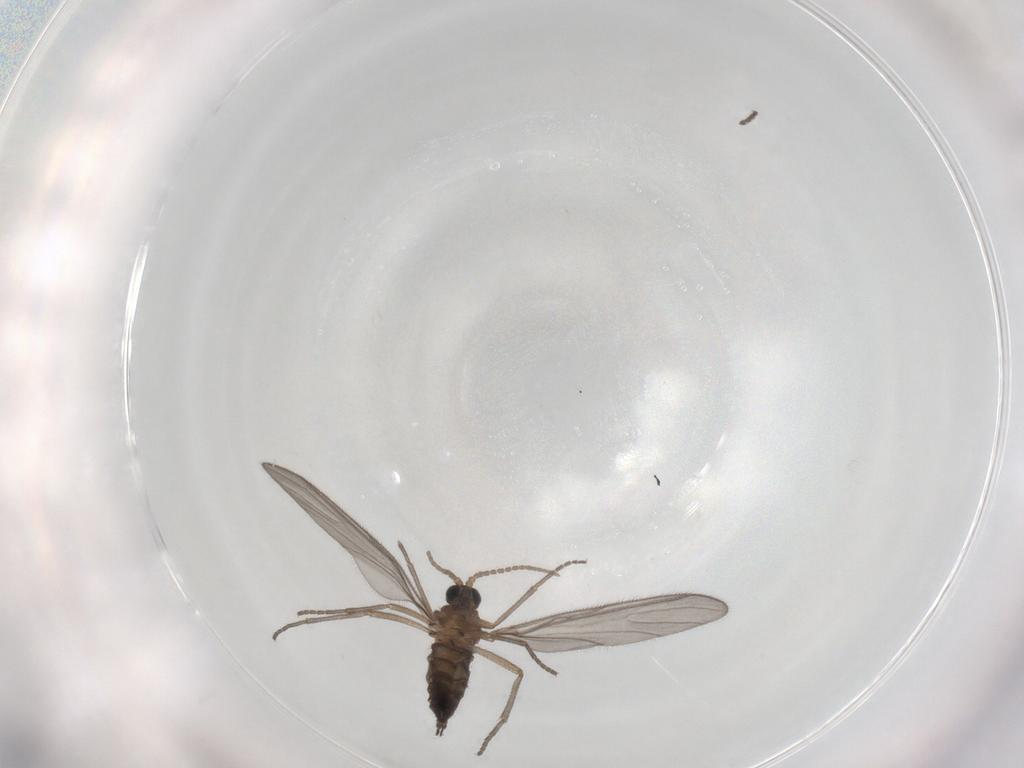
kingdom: Animalia
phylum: Arthropoda
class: Insecta
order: Diptera
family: Sciaridae
